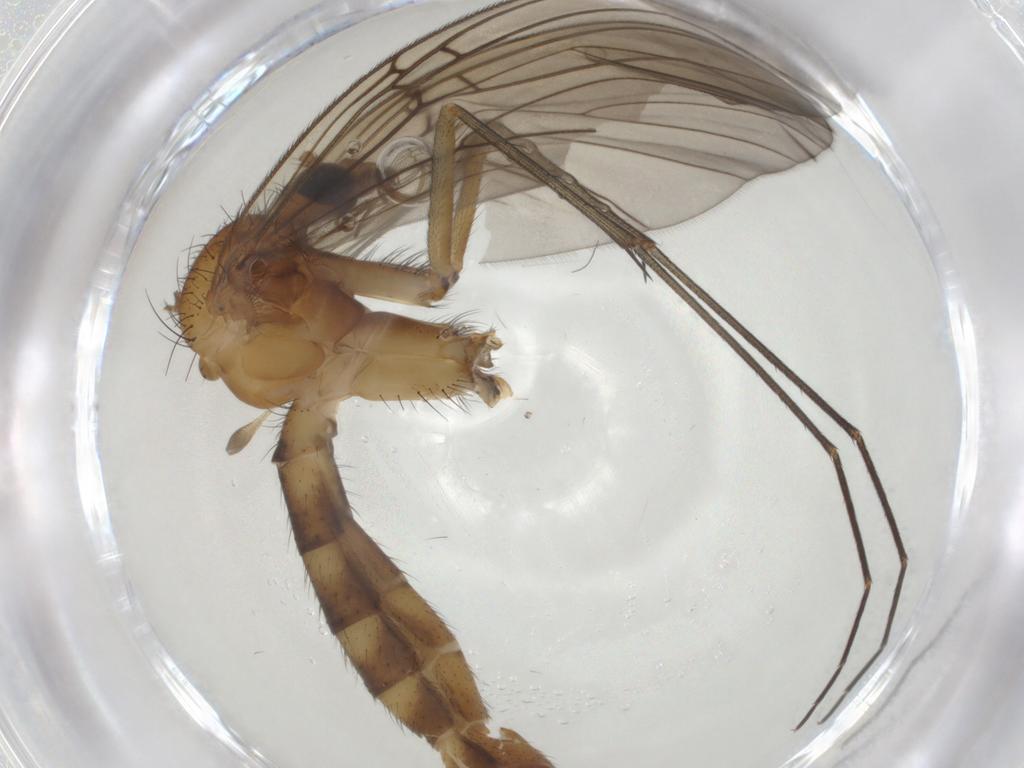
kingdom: Animalia
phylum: Arthropoda
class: Insecta
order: Diptera
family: Mycetophilidae
